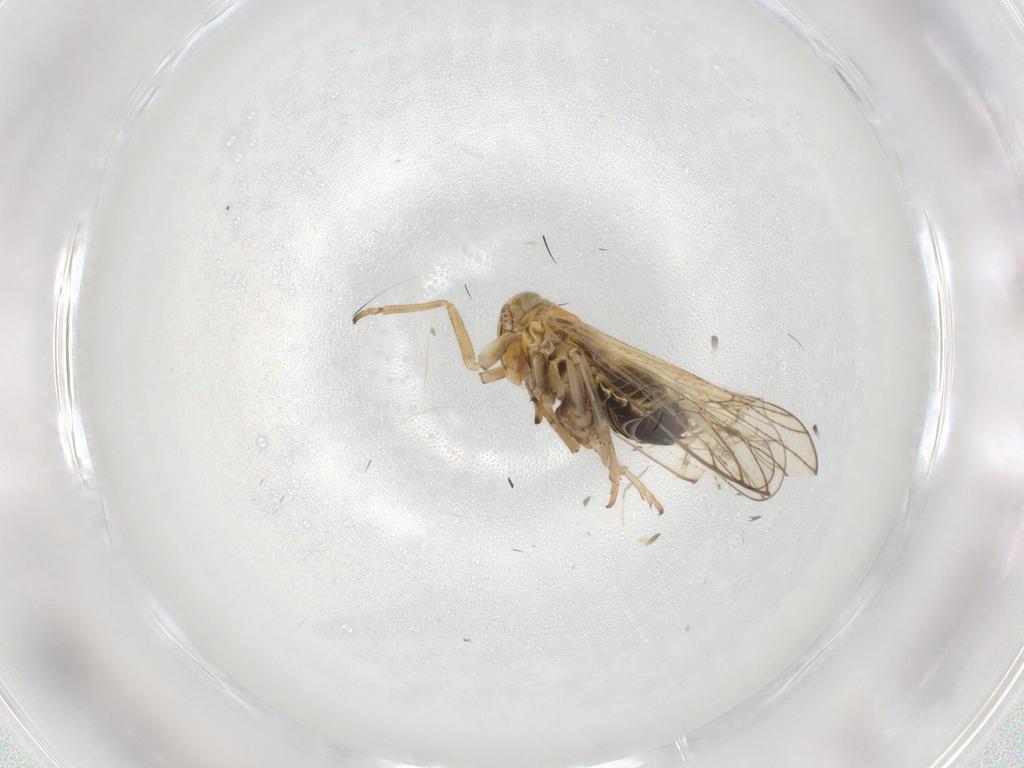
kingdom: Animalia
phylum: Arthropoda
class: Insecta
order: Hemiptera
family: Delphacidae
